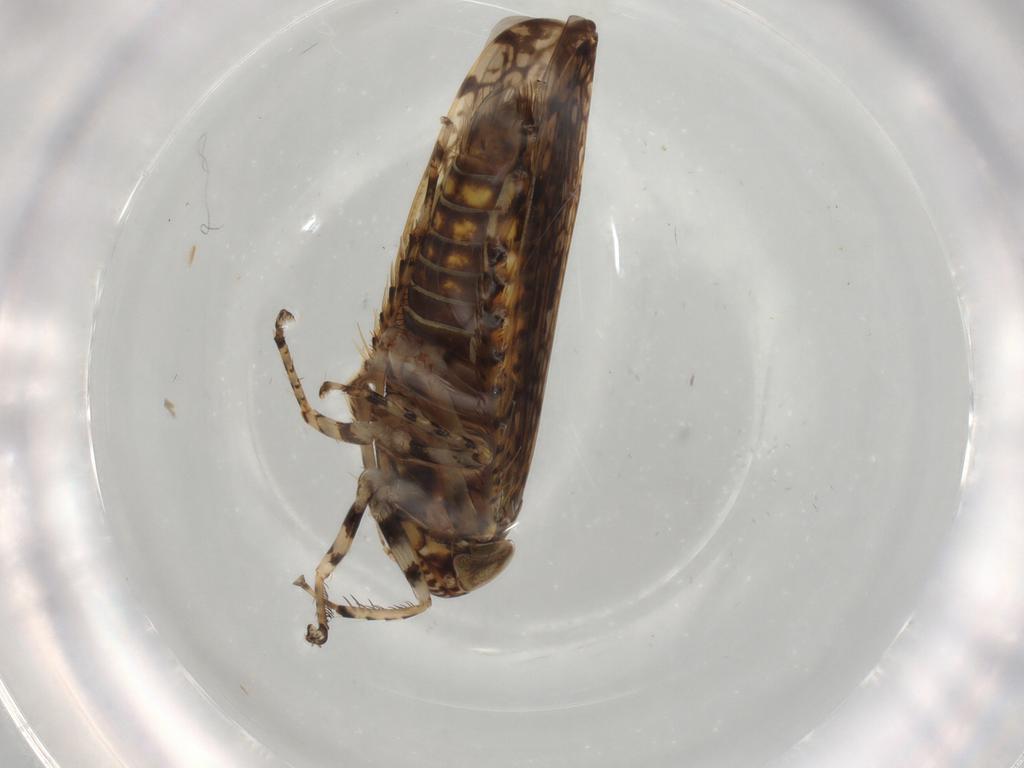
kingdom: Animalia
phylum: Arthropoda
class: Insecta
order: Hemiptera
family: Cicadellidae
